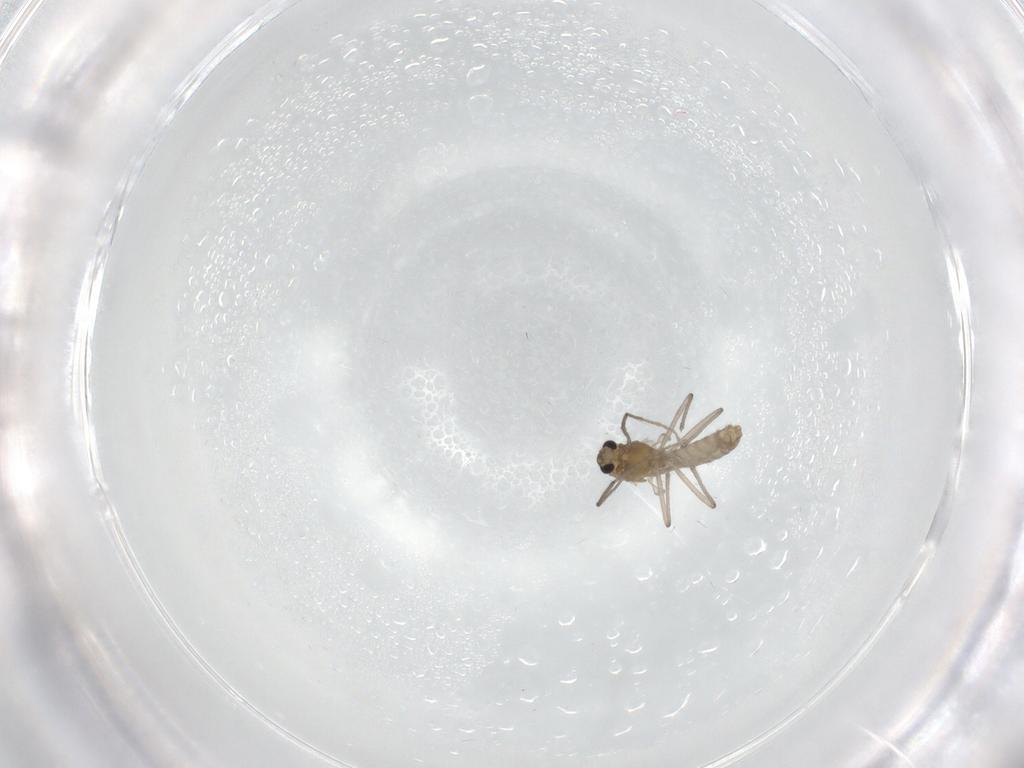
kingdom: Animalia
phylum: Arthropoda
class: Insecta
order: Diptera
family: Chironomidae
